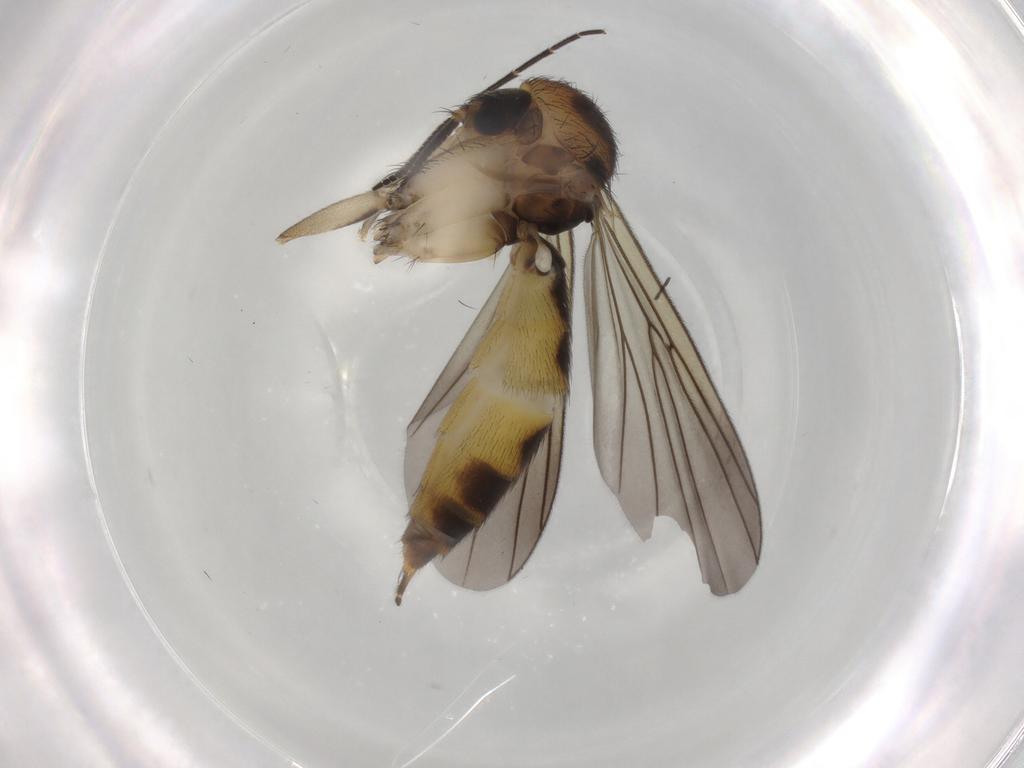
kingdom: Animalia
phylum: Arthropoda
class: Insecta
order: Diptera
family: Mycetophilidae
